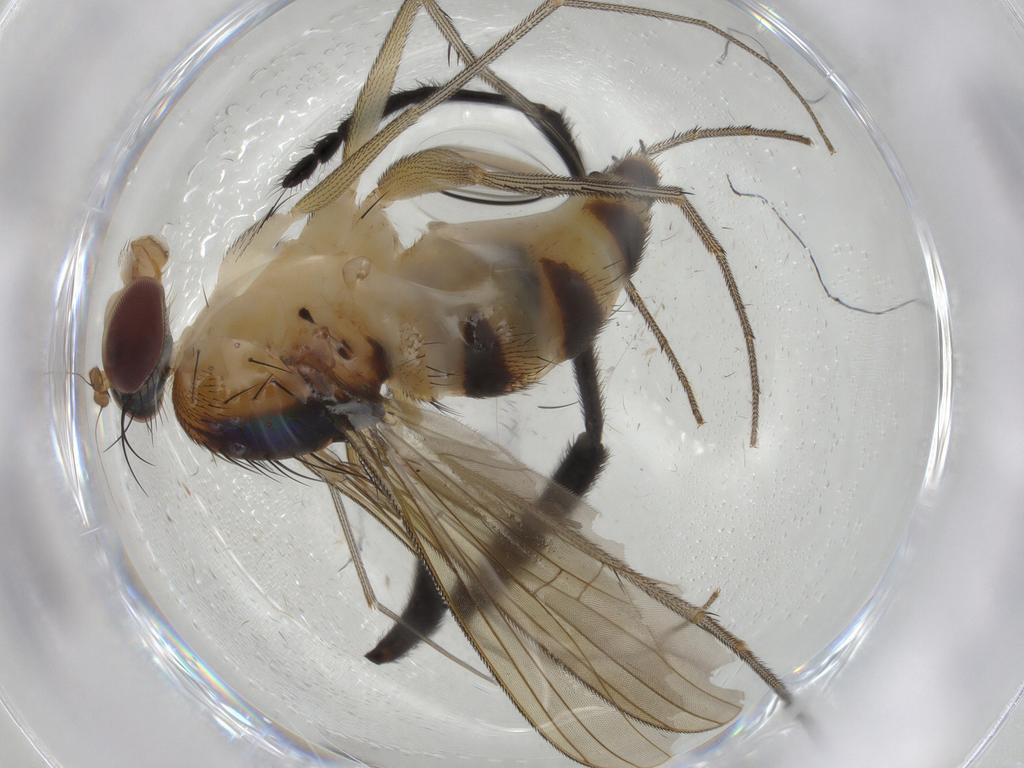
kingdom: Animalia
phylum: Arthropoda
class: Insecta
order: Diptera
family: Bibionidae
